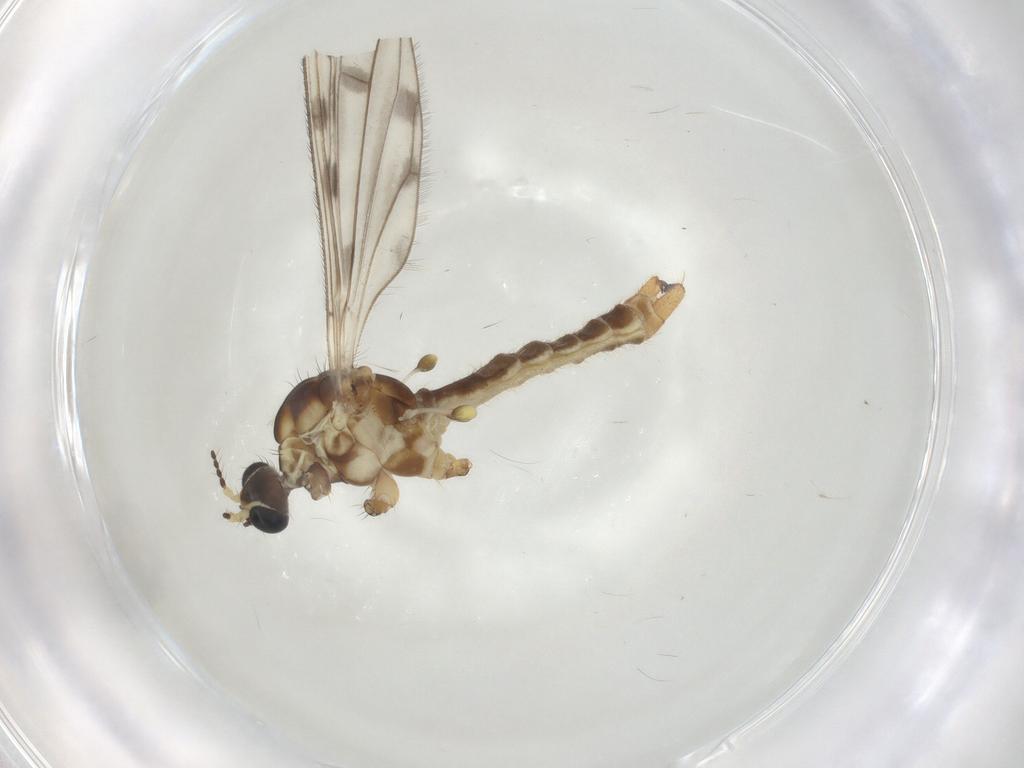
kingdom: Animalia
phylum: Arthropoda
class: Insecta
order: Diptera
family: Limoniidae
